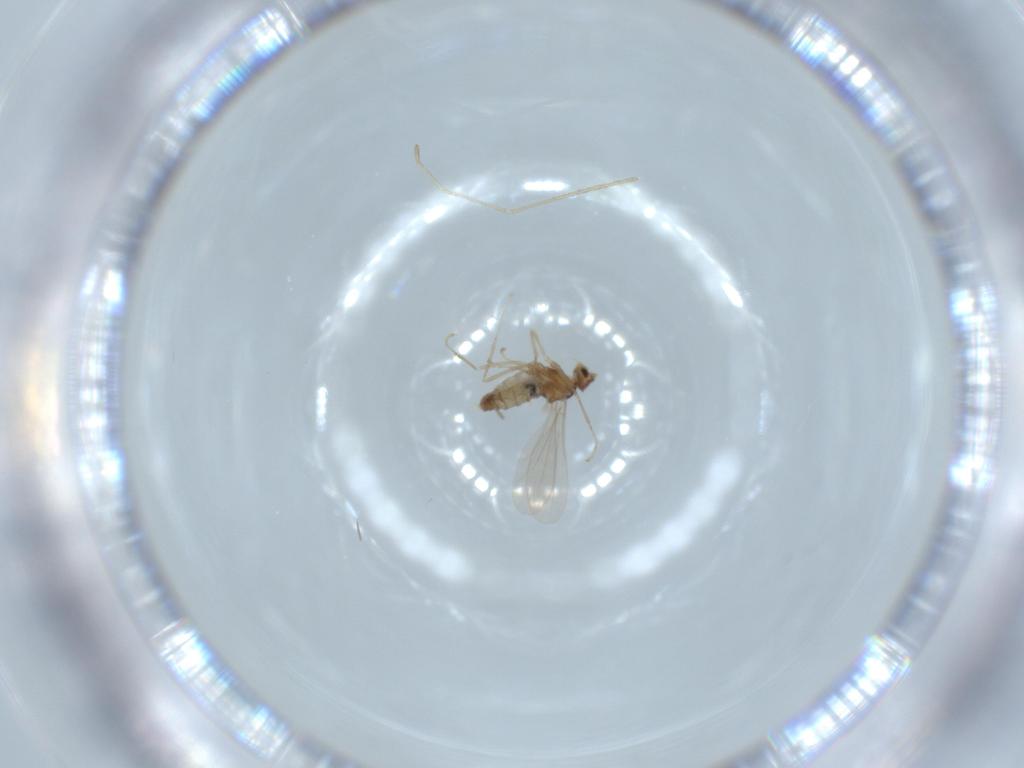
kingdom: Animalia
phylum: Arthropoda
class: Insecta
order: Diptera
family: Cecidomyiidae
